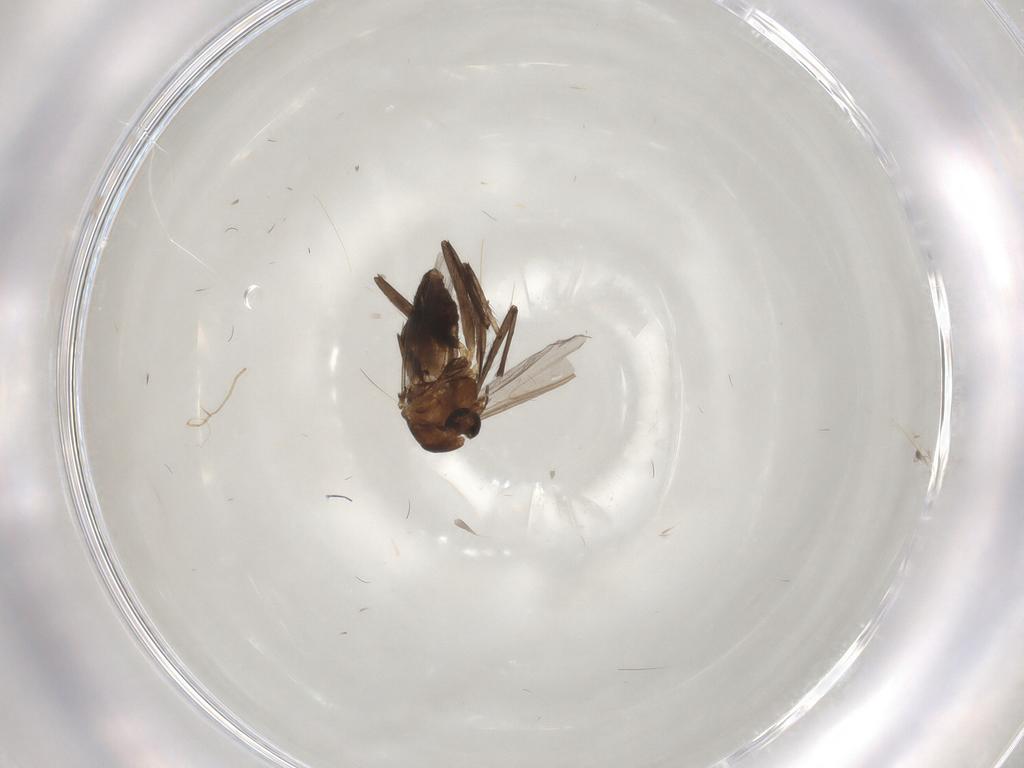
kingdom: Animalia
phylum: Arthropoda
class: Insecta
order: Diptera
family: Chironomidae
